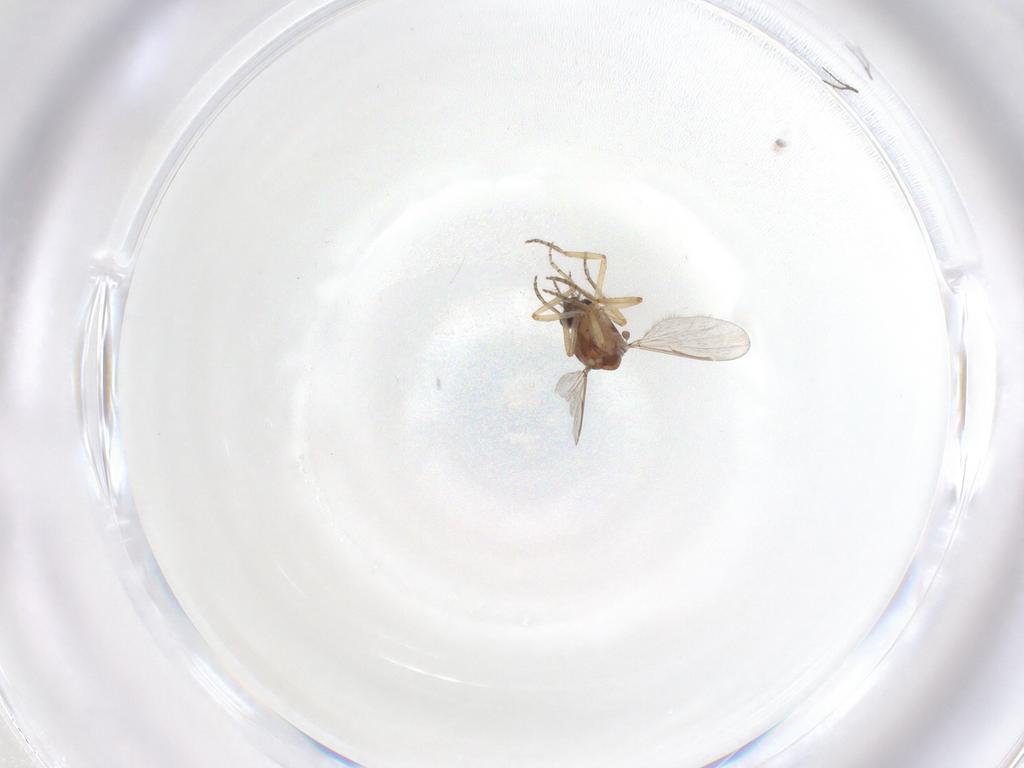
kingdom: Animalia
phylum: Arthropoda
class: Insecta
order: Diptera
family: Ceratopogonidae
